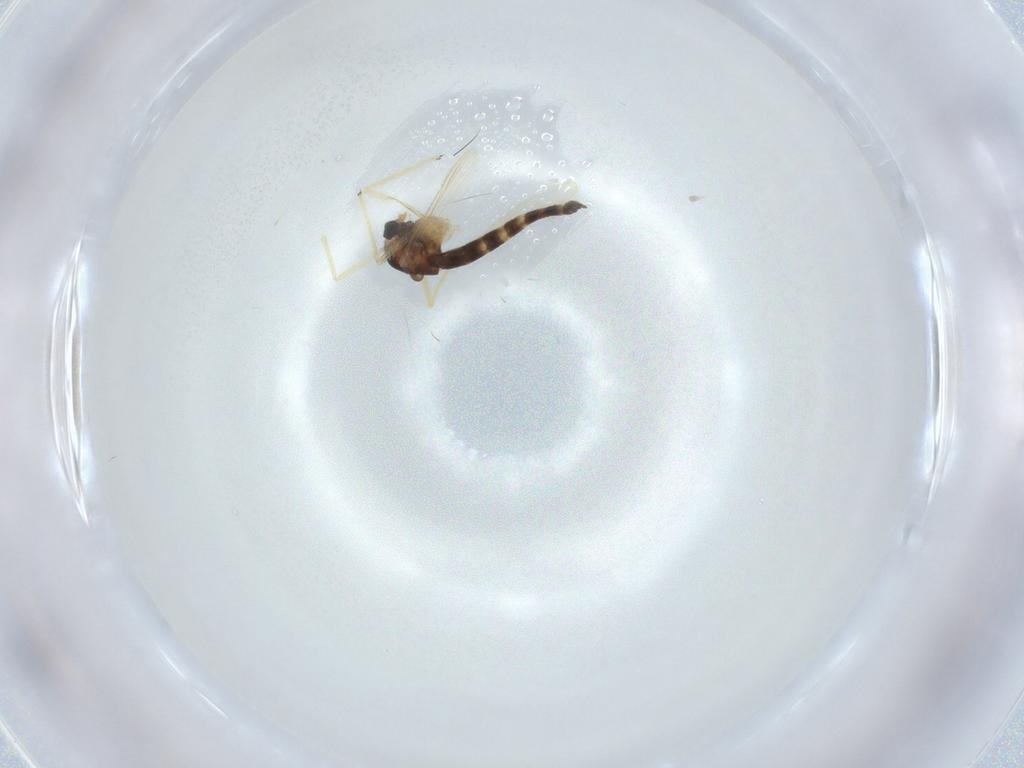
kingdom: Animalia
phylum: Arthropoda
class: Insecta
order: Diptera
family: Chironomidae
